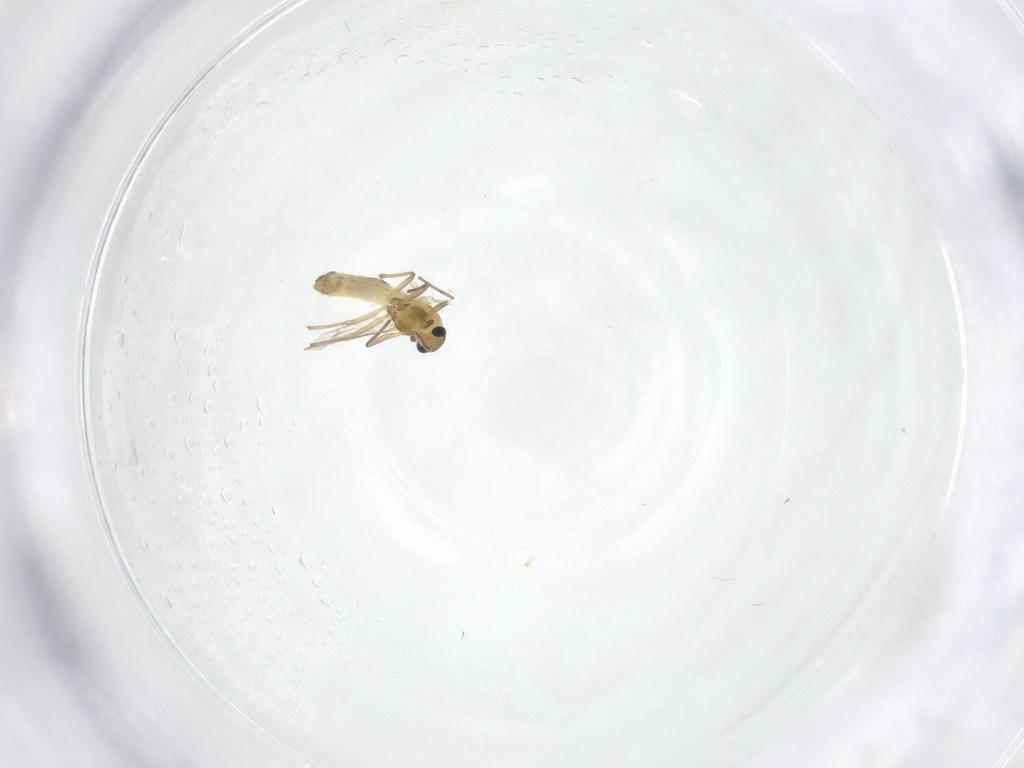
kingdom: Animalia
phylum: Arthropoda
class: Insecta
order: Diptera
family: Chironomidae
